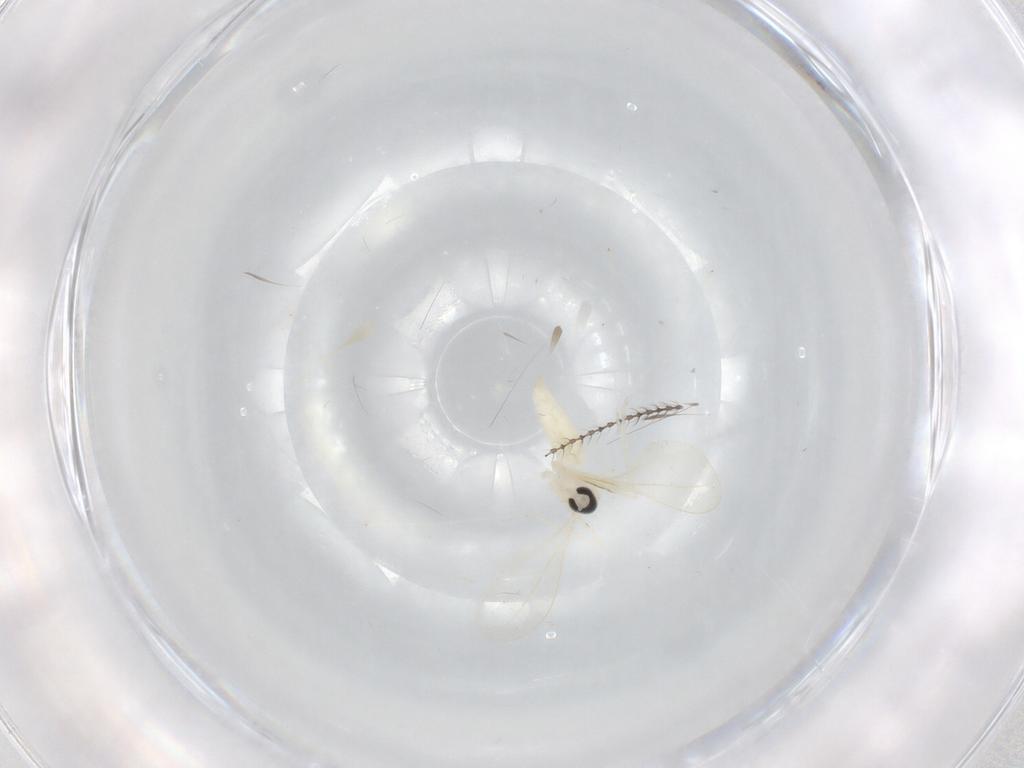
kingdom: Animalia
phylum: Arthropoda
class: Insecta
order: Diptera
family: Cecidomyiidae
